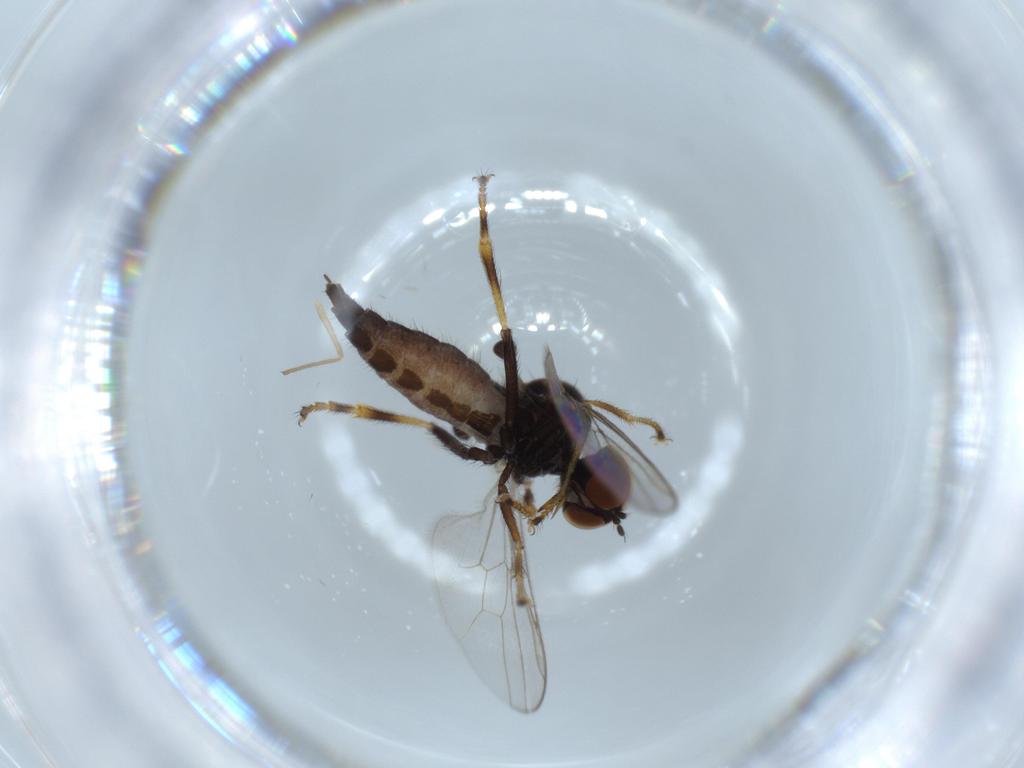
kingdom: Animalia
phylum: Arthropoda
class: Insecta
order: Diptera
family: Hybotidae
